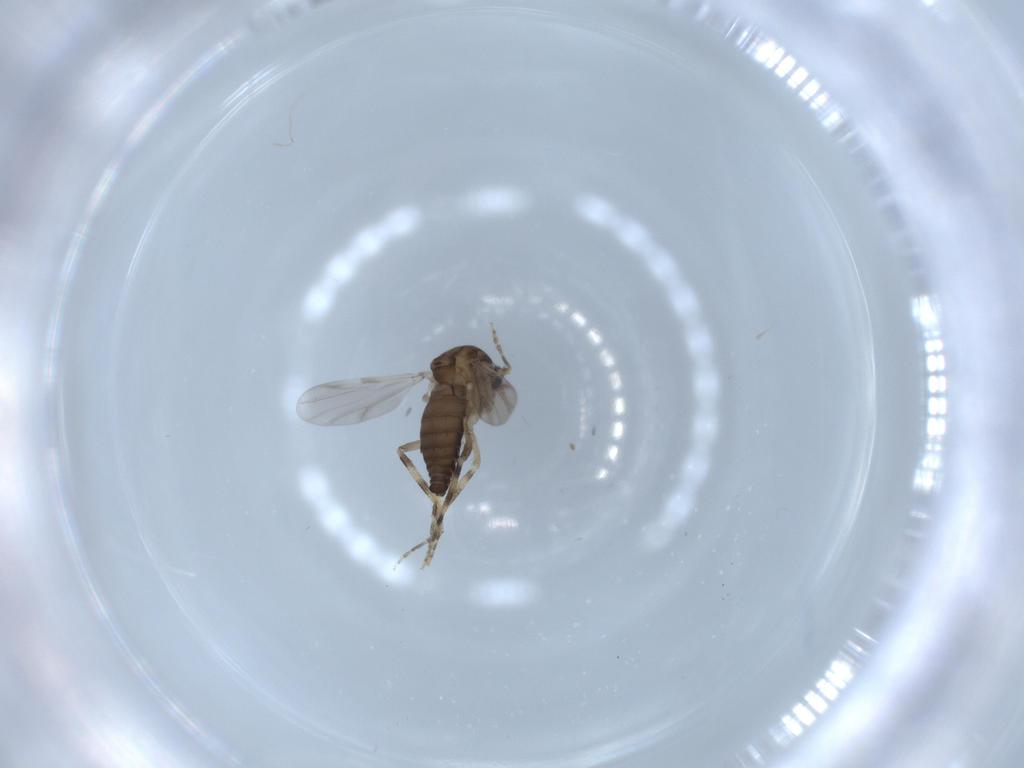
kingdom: Animalia
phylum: Arthropoda
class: Insecta
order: Diptera
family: Ceratopogonidae
